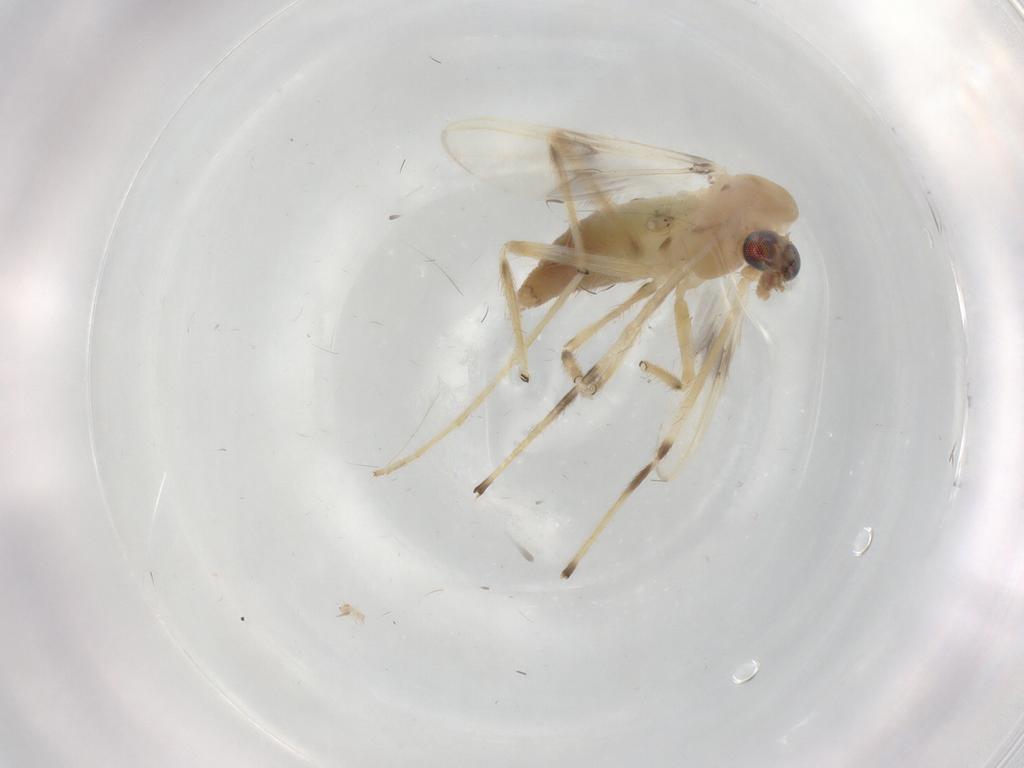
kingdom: Animalia
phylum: Arthropoda
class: Insecta
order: Diptera
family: Chironomidae
